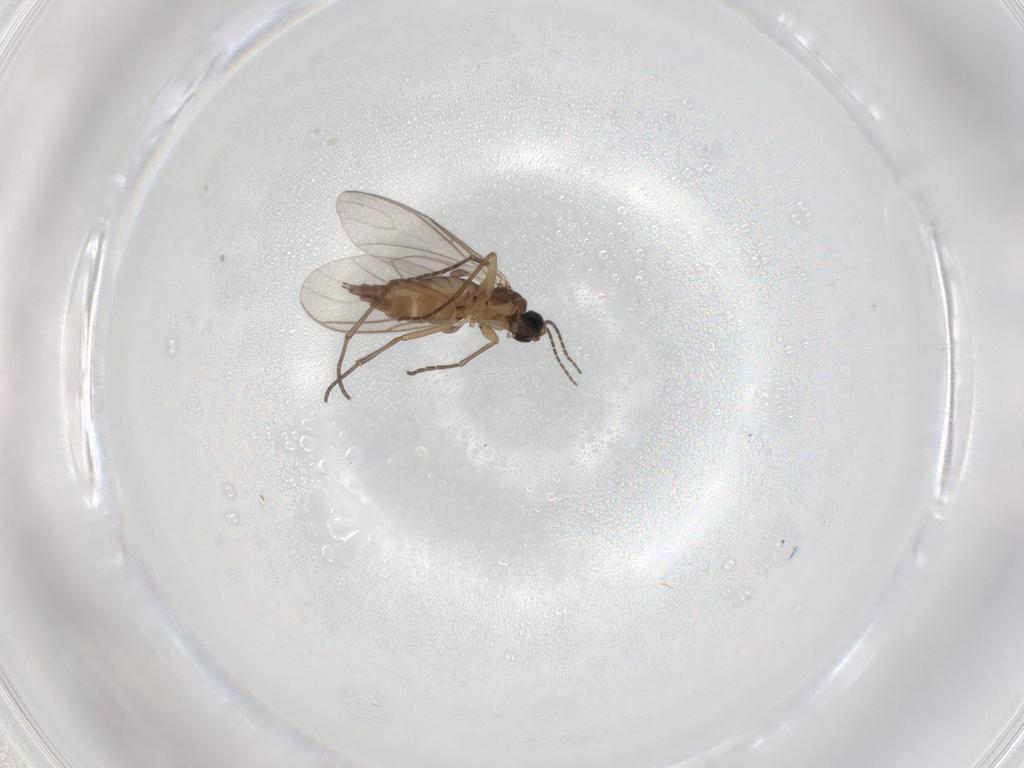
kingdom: Animalia
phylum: Arthropoda
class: Insecta
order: Diptera
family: Sciaridae
